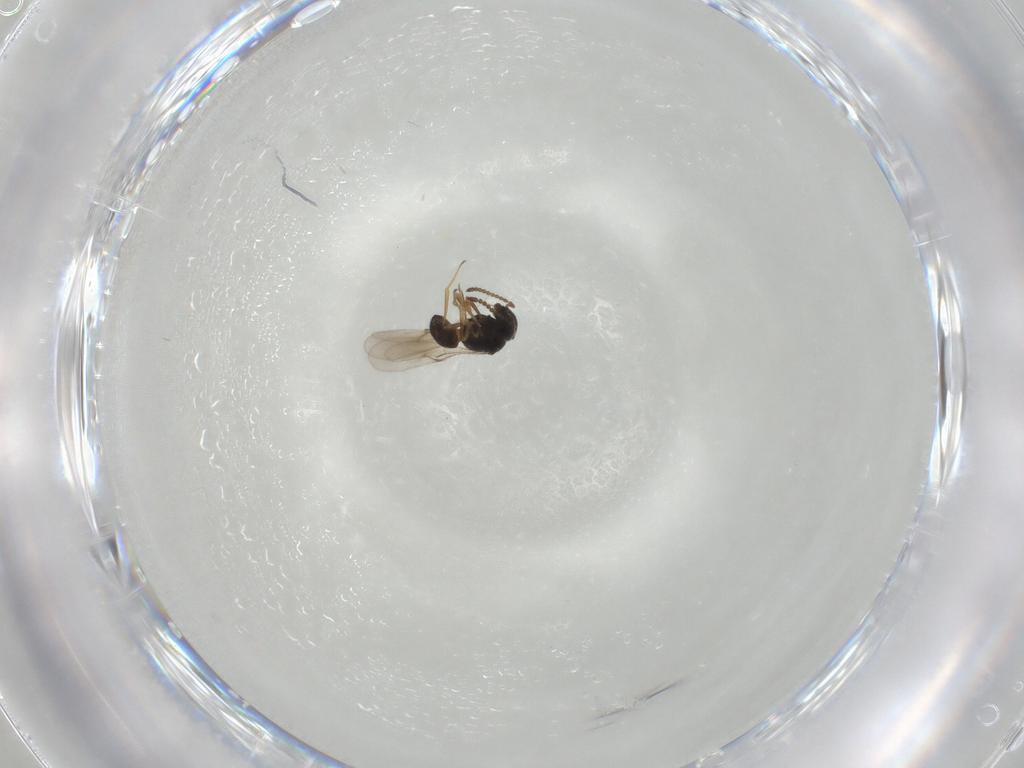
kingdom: Animalia
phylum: Arthropoda
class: Insecta
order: Hymenoptera
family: Scelionidae
